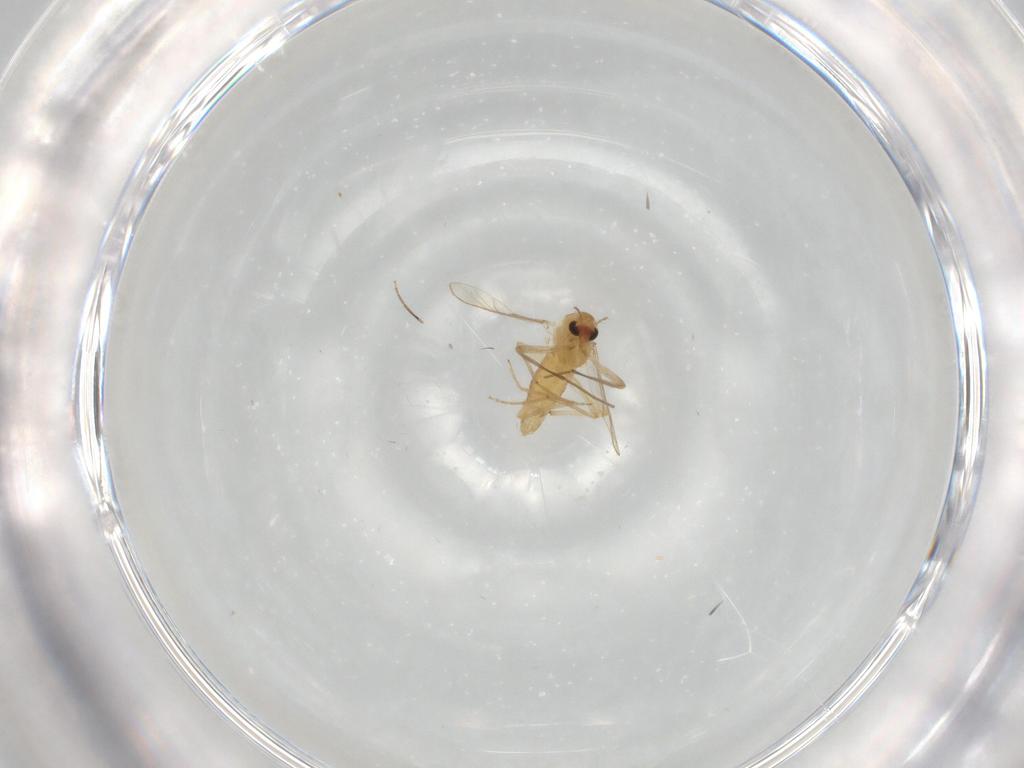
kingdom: Animalia
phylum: Arthropoda
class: Insecta
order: Diptera
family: Chironomidae
